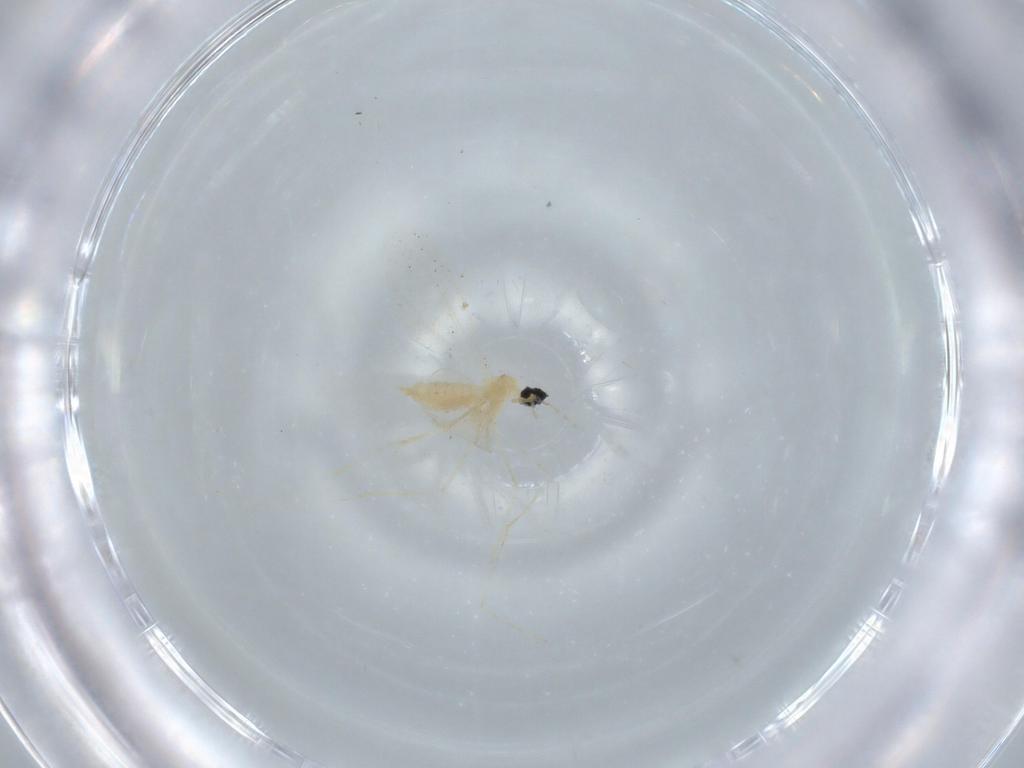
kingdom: Animalia
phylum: Arthropoda
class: Insecta
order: Diptera
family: Cecidomyiidae
